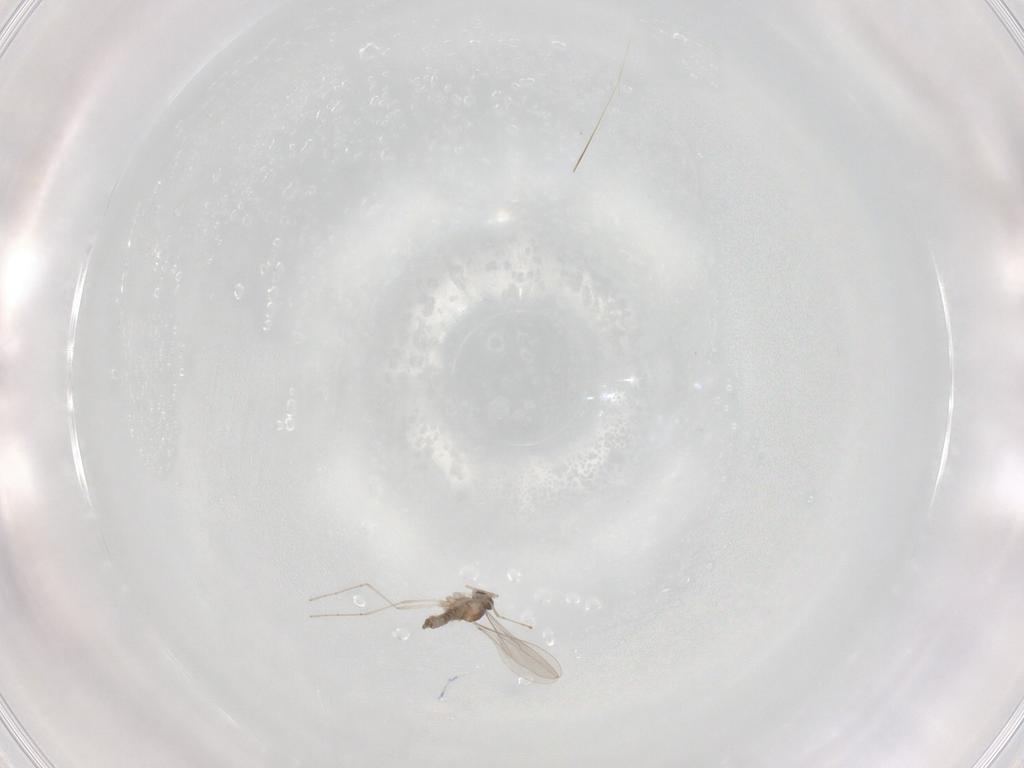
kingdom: Animalia
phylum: Arthropoda
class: Insecta
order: Diptera
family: Cecidomyiidae
